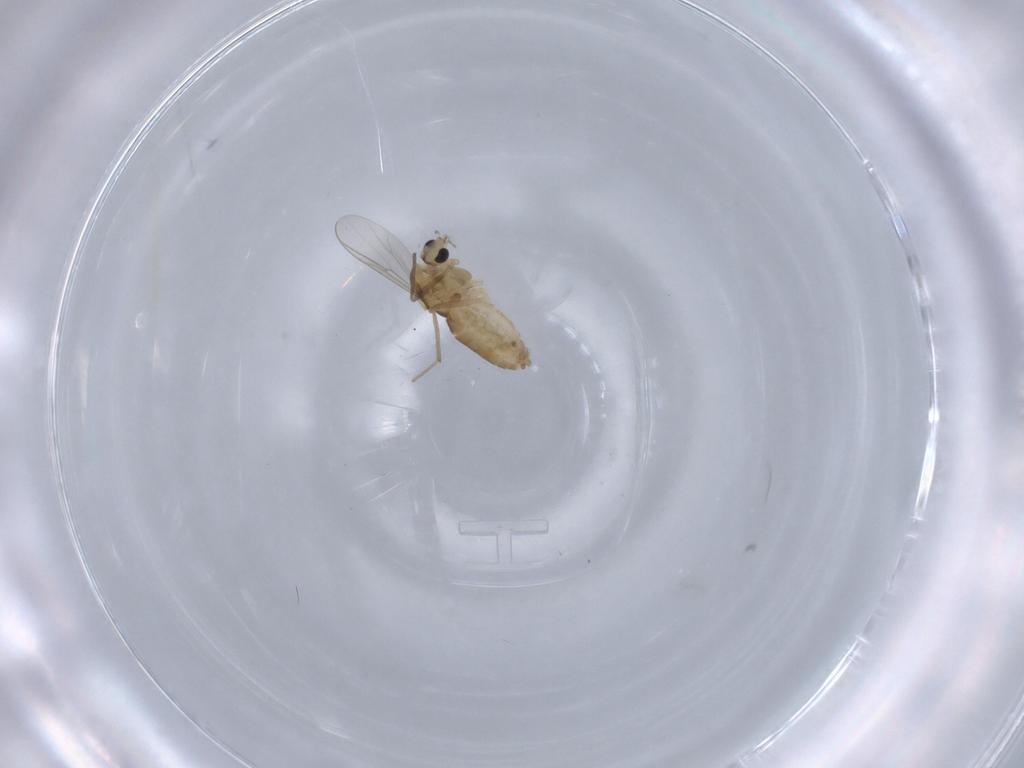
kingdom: Animalia
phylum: Arthropoda
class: Insecta
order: Diptera
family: Chironomidae
